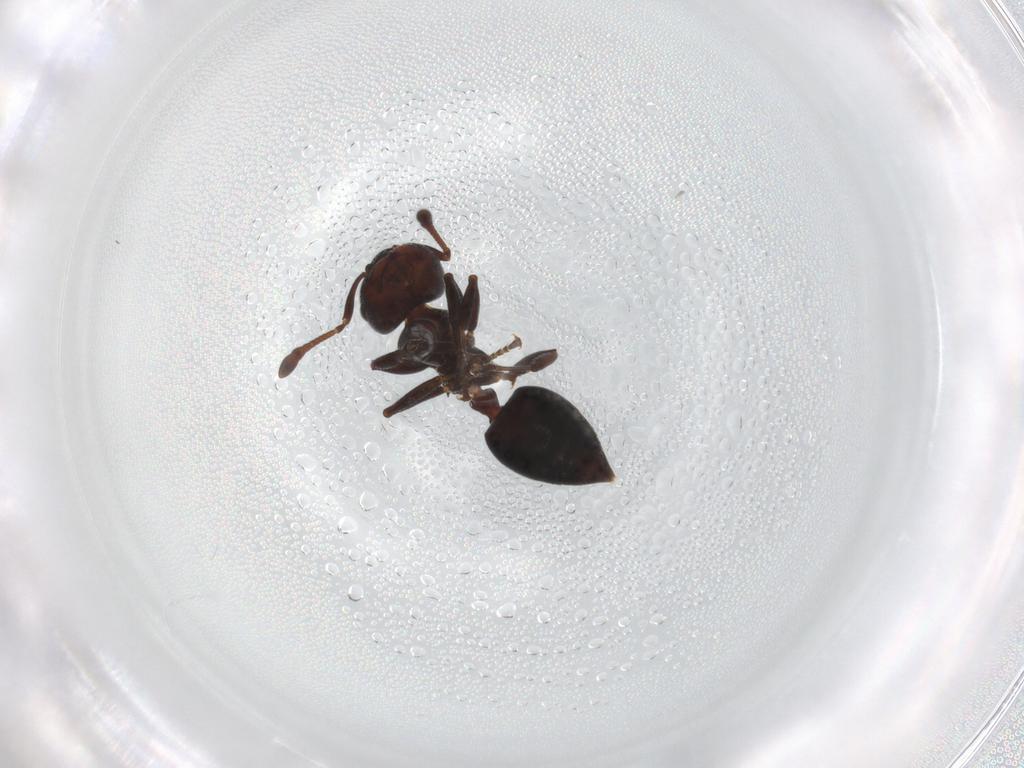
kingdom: Animalia
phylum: Arthropoda
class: Insecta
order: Hymenoptera
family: Formicidae
